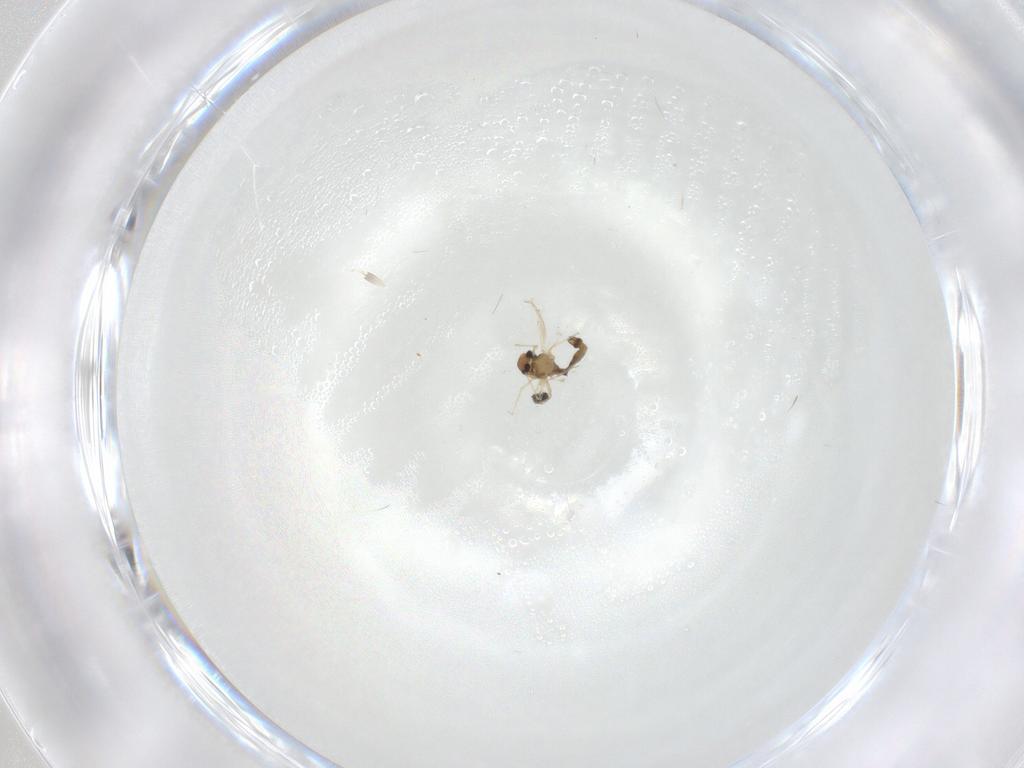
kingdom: Animalia
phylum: Arthropoda
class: Insecta
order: Diptera
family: Chironomidae
